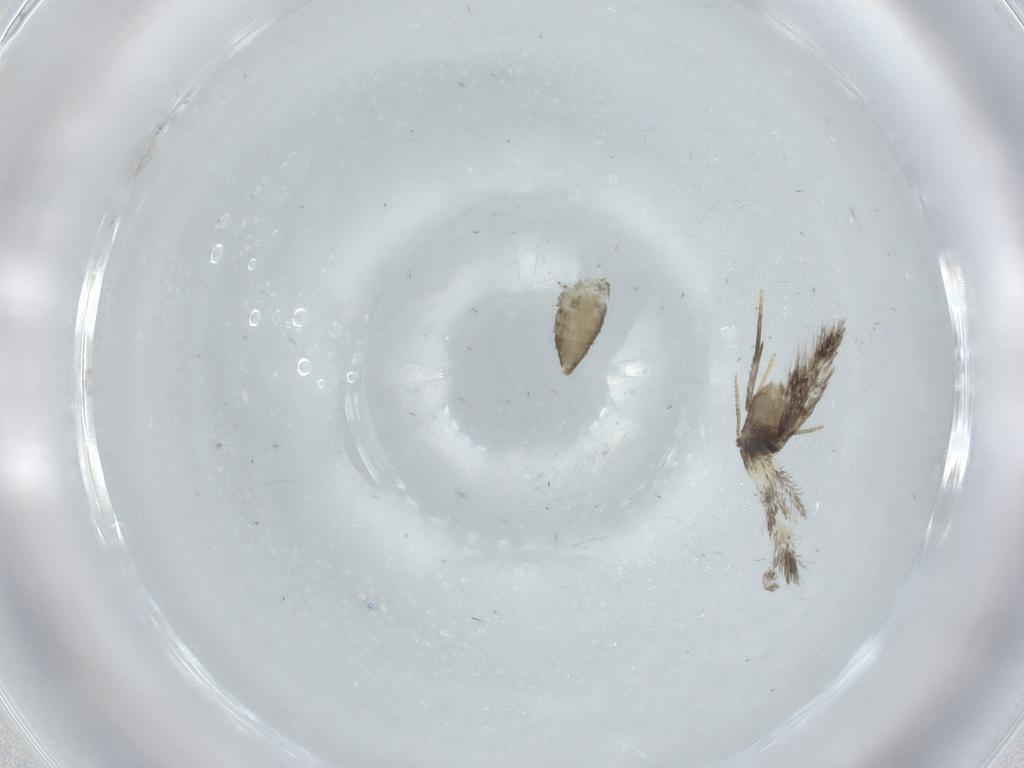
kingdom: Animalia
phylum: Arthropoda
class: Insecta
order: Lepidoptera
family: Nepticulidae
